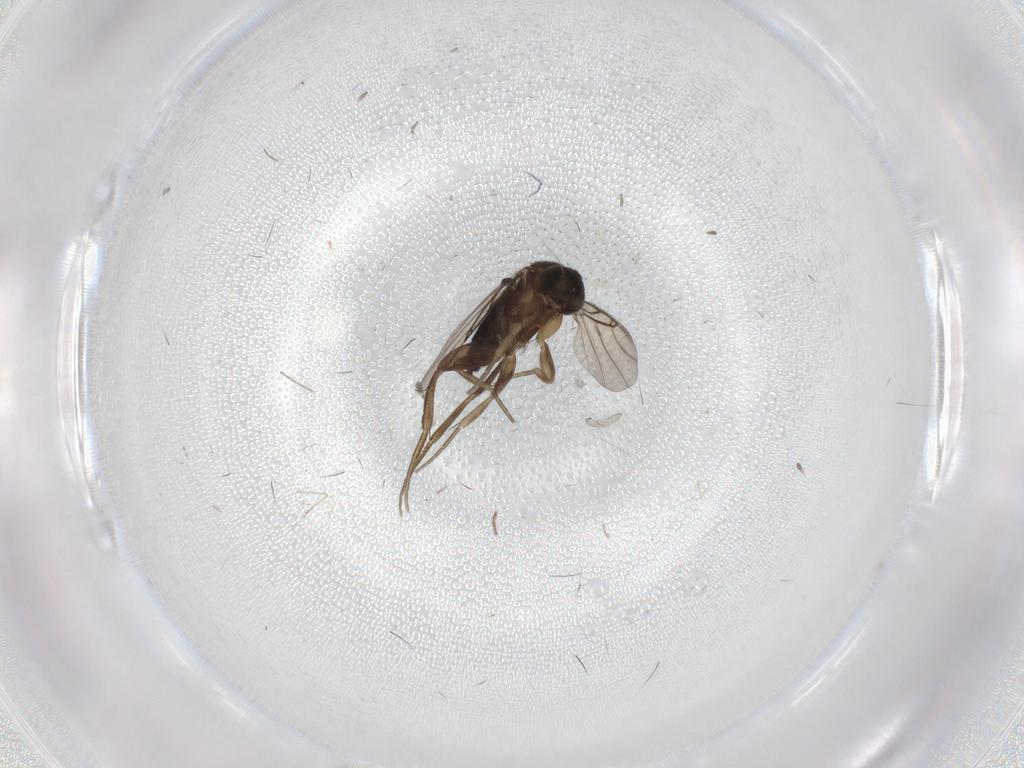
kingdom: Animalia
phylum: Arthropoda
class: Insecta
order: Diptera
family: Phoridae
